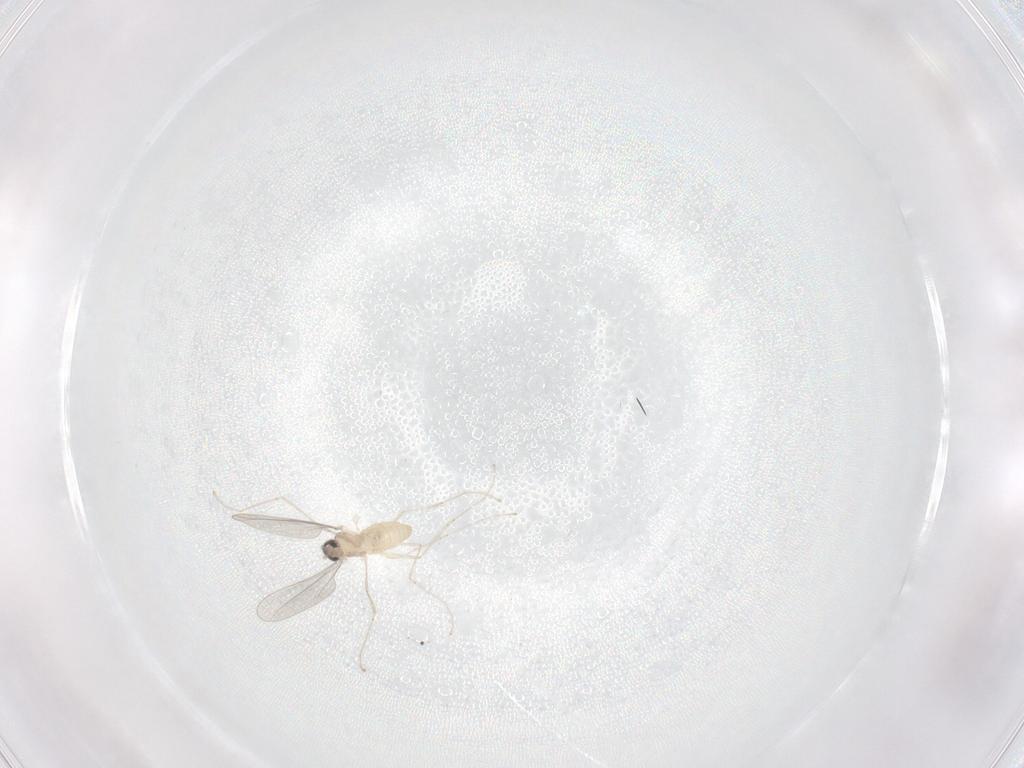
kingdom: Animalia
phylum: Arthropoda
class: Insecta
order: Diptera
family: Cecidomyiidae
